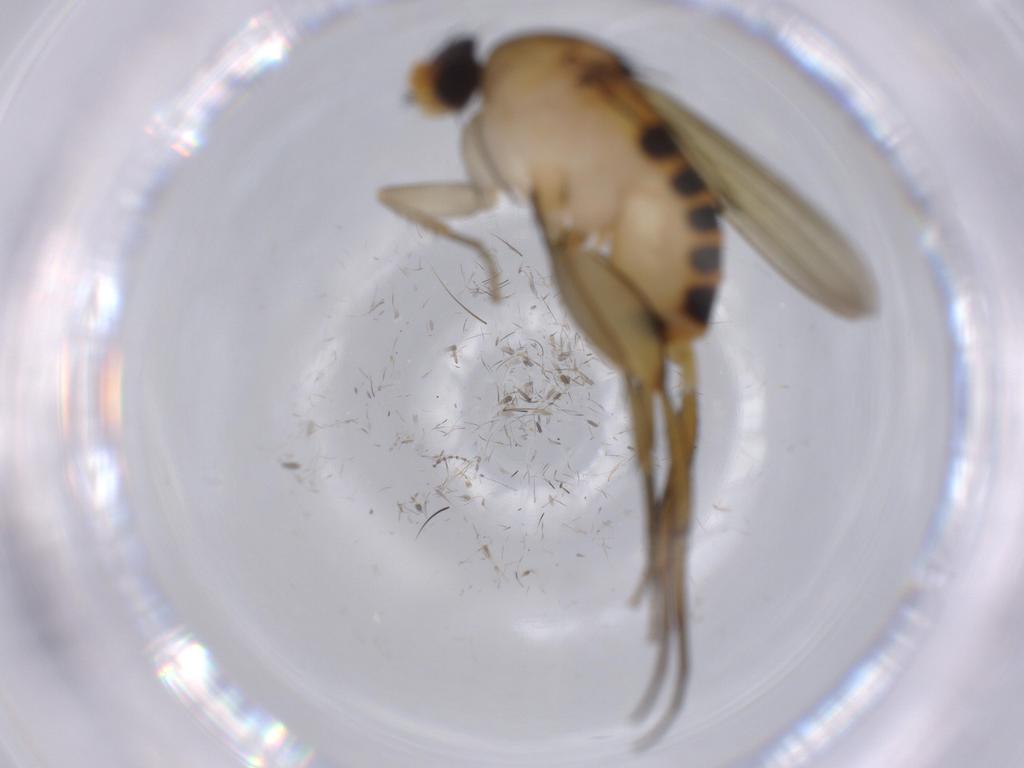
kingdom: Animalia
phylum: Arthropoda
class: Insecta
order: Diptera
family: Phoridae
